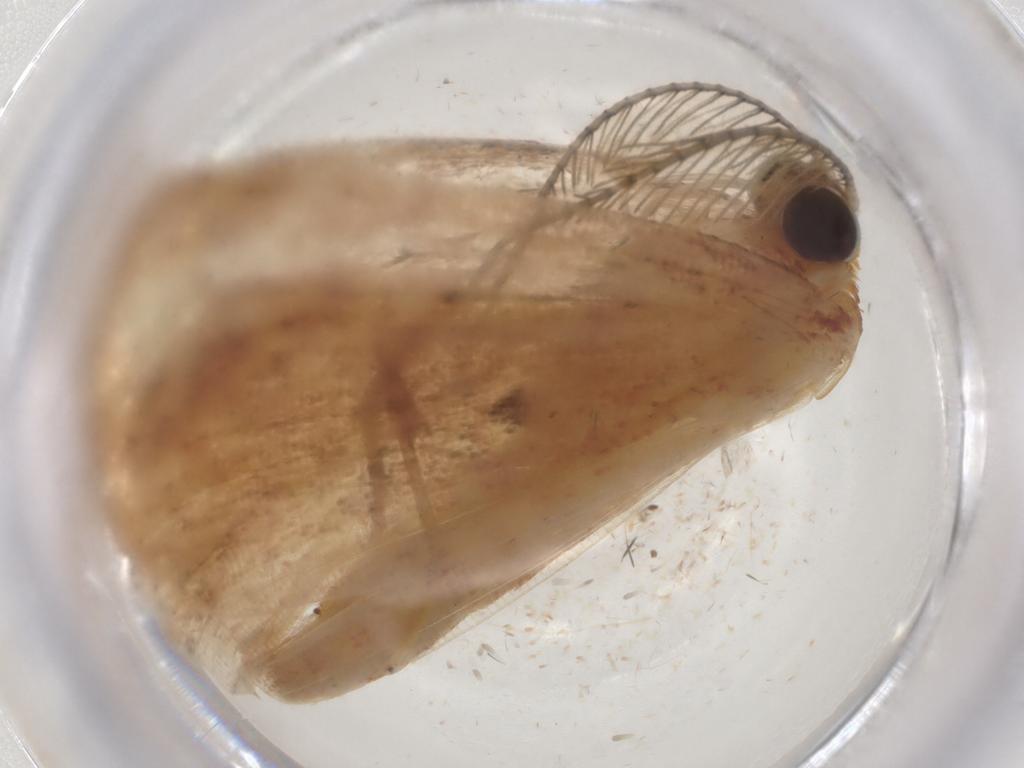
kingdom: Animalia
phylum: Arthropoda
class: Insecta
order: Lepidoptera
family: Geometridae
